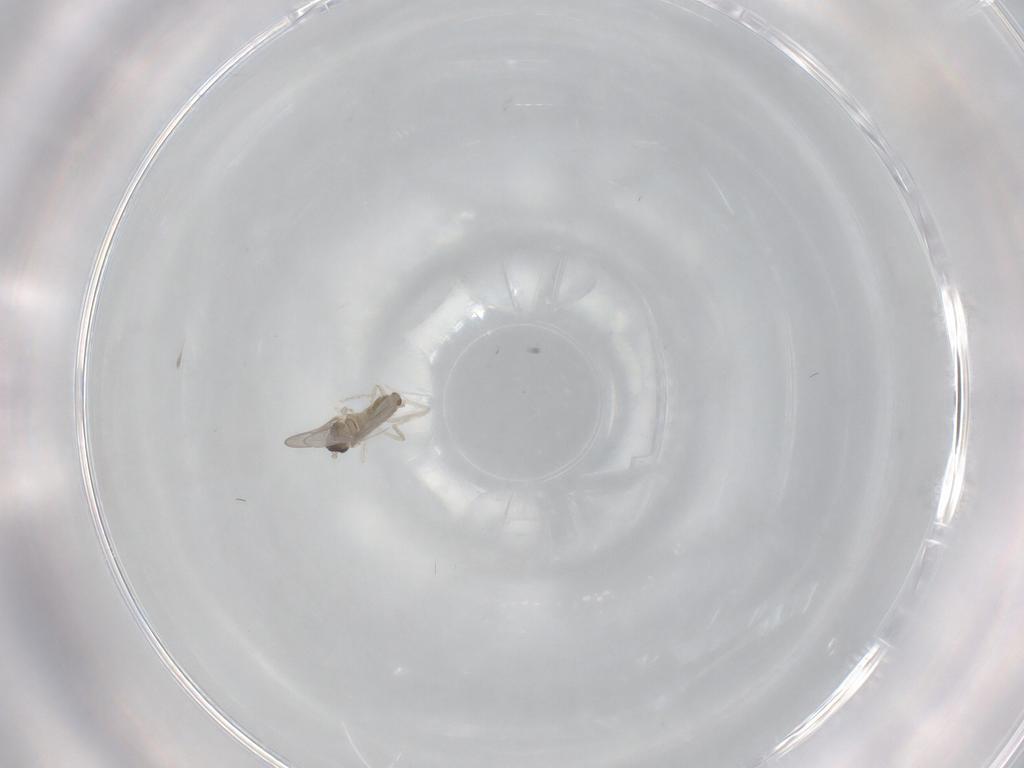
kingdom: Animalia
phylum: Arthropoda
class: Insecta
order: Diptera
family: Cecidomyiidae
